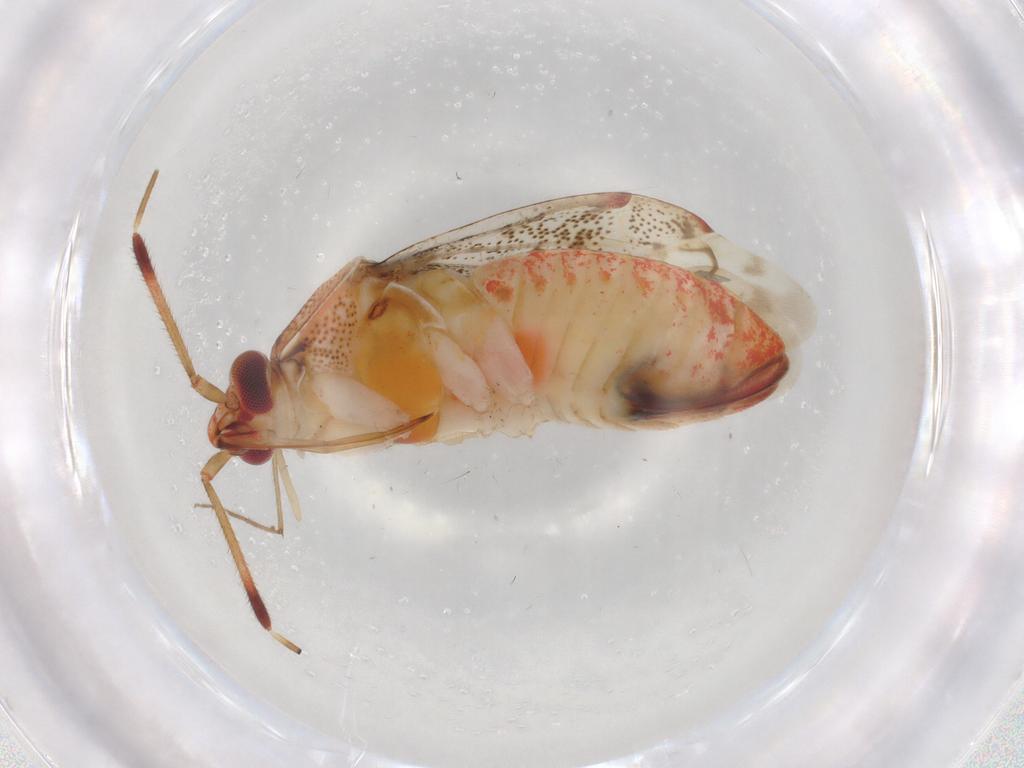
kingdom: Animalia
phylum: Arthropoda
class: Insecta
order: Hemiptera
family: Miridae
